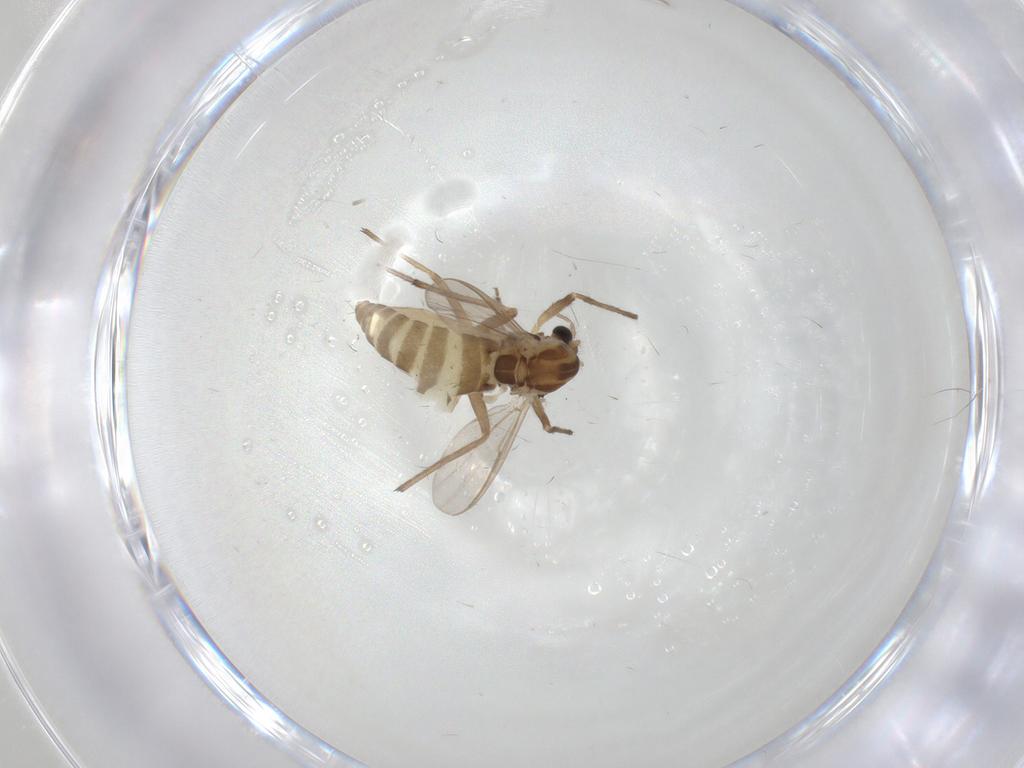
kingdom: Animalia
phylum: Arthropoda
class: Insecta
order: Diptera
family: Chironomidae
